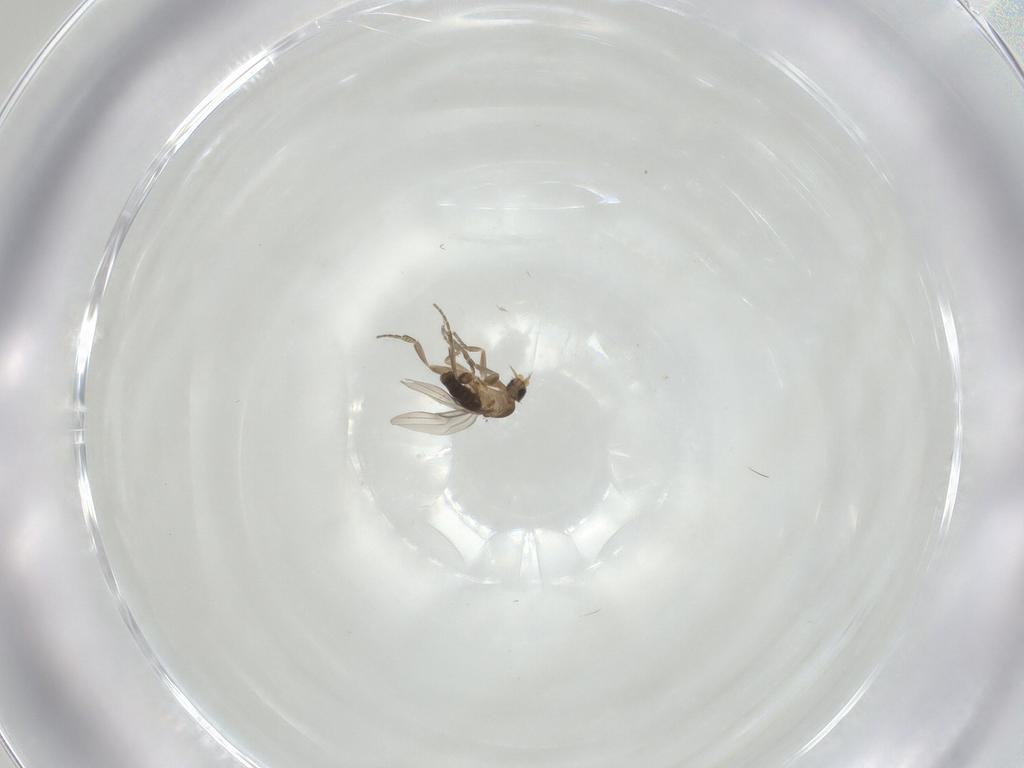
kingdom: Animalia
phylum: Arthropoda
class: Insecta
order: Diptera
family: Phoridae
